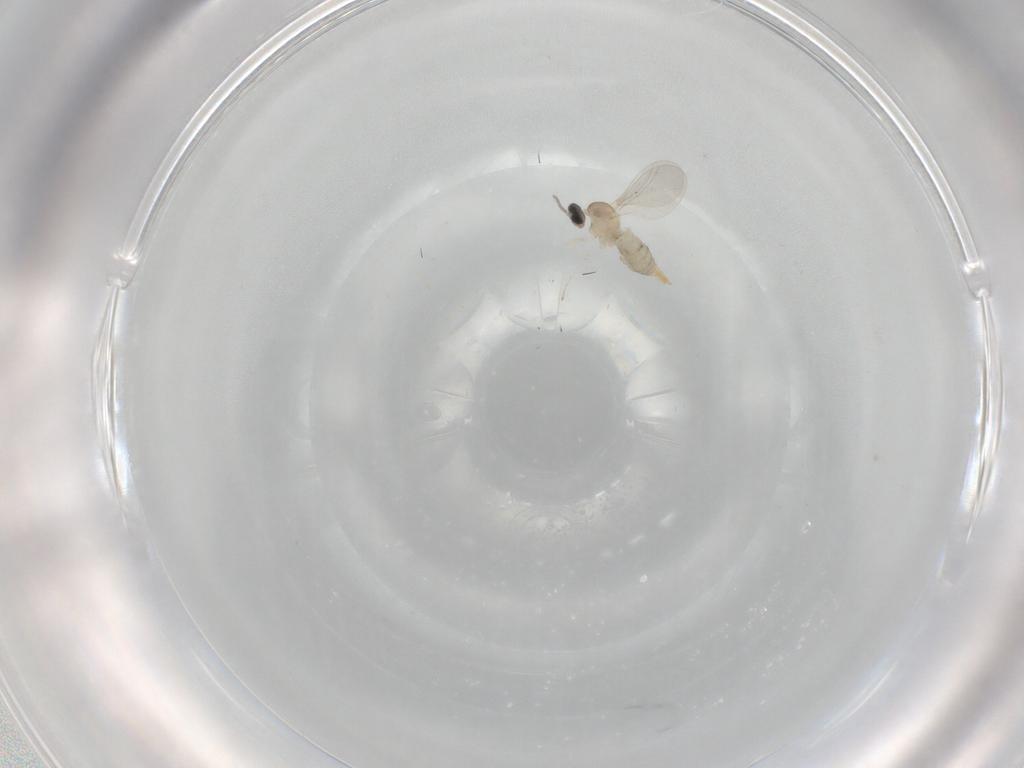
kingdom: Animalia
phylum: Arthropoda
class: Insecta
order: Diptera
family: Cecidomyiidae
